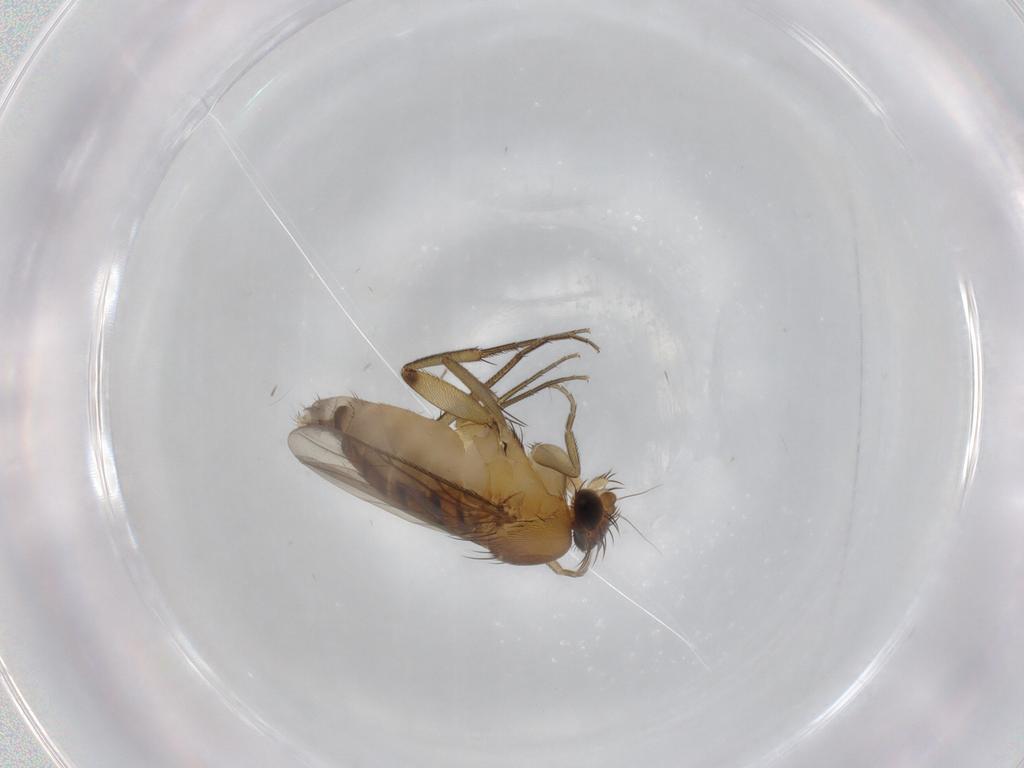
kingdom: Animalia
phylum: Arthropoda
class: Insecta
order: Diptera
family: Phoridae
